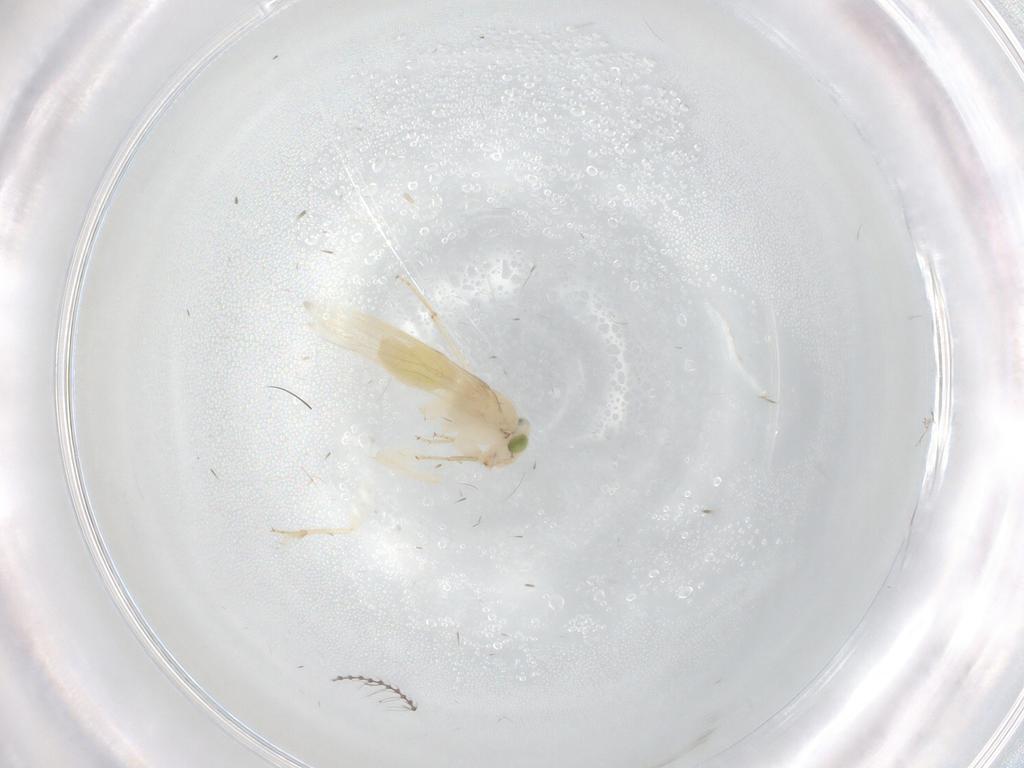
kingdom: Animalia
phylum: Arthropoda
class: Insecta
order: Psocodea
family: Lepidopsocidae
